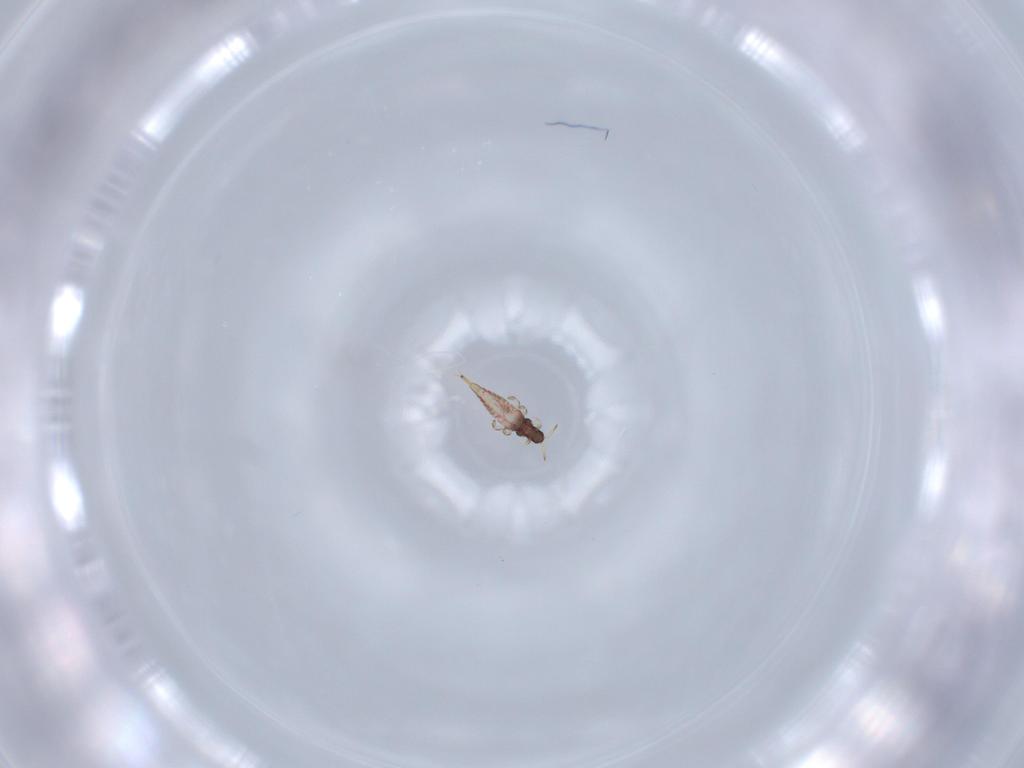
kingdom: Animalia
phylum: Arthropoda
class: Insecta
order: Thysanoptera
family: Phlaeothripidae
